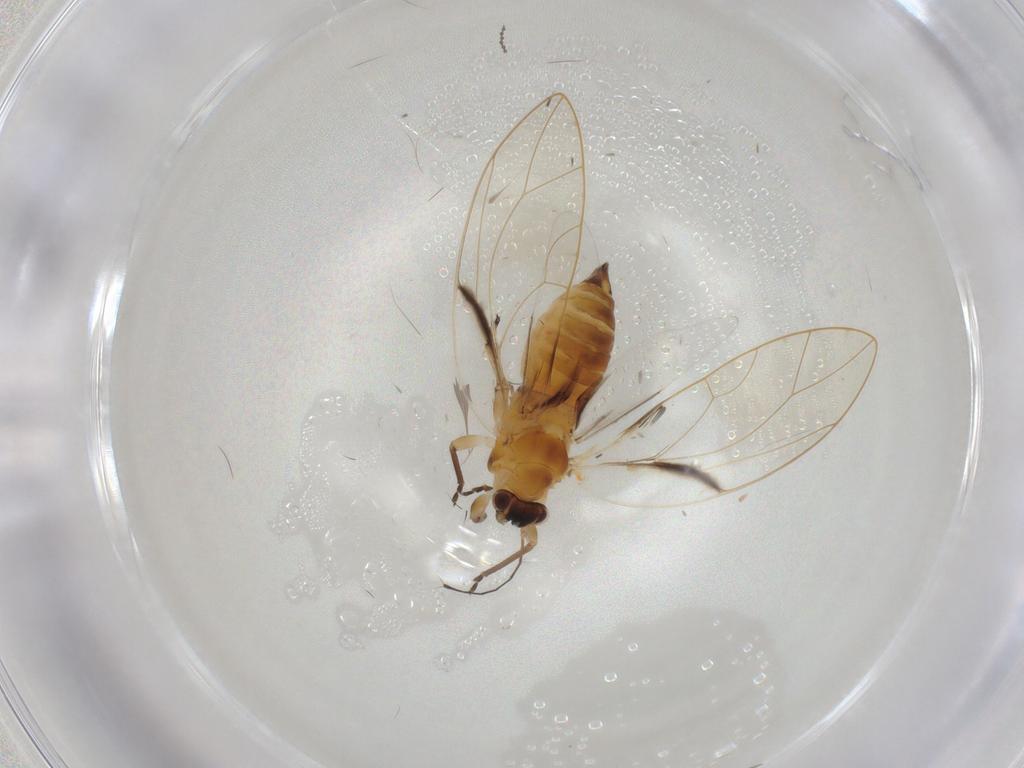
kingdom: Animalia
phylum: Arthropoda
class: Insecta
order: Hemiptera
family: Psylloidea_incertae_sedis
